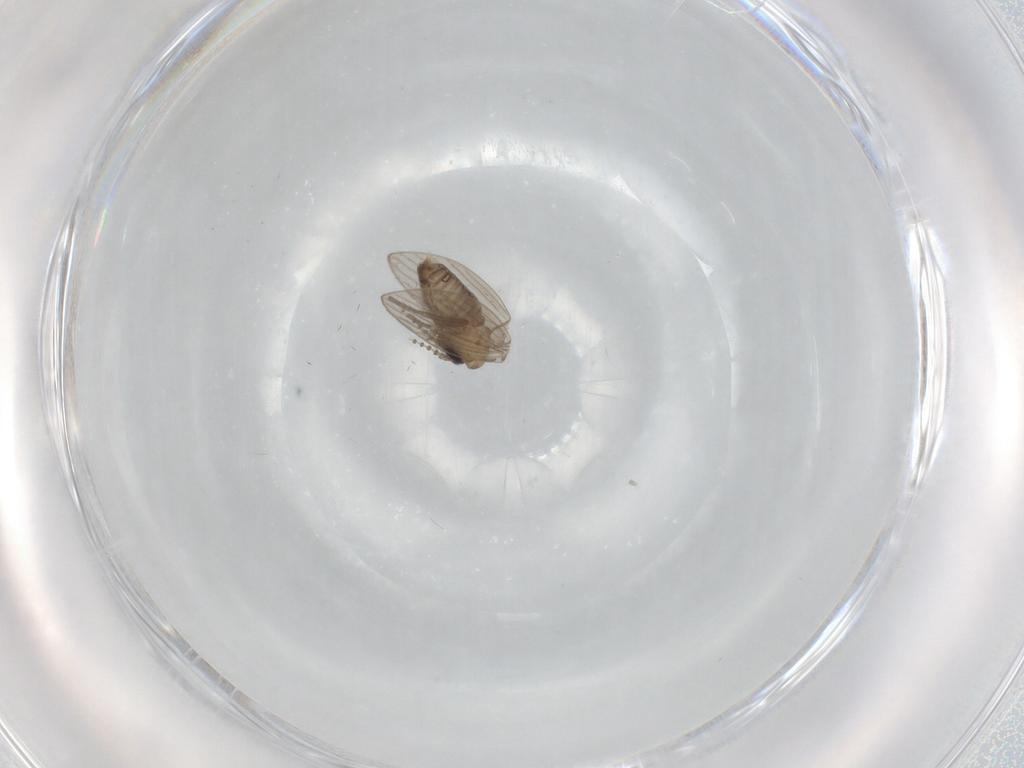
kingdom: Animalia
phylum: Arthropoda
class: Insecta
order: Diptera
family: Psychodidae
